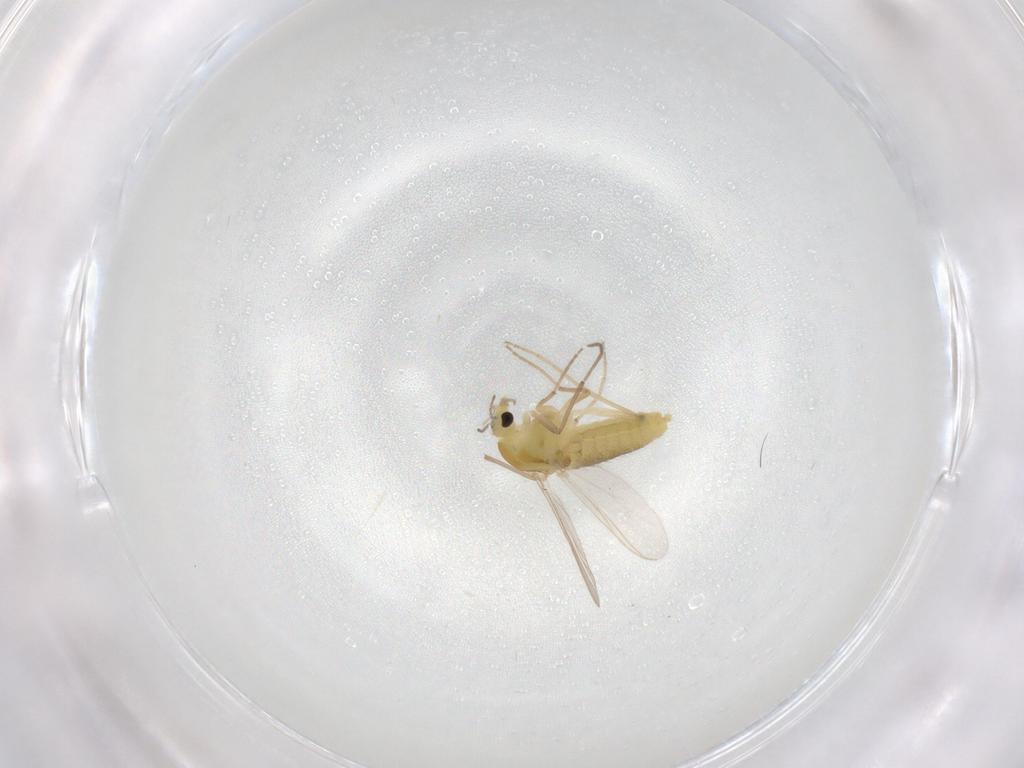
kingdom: Animalia
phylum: Arthropoda
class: Insecta
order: Diptera
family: Chironomidae
